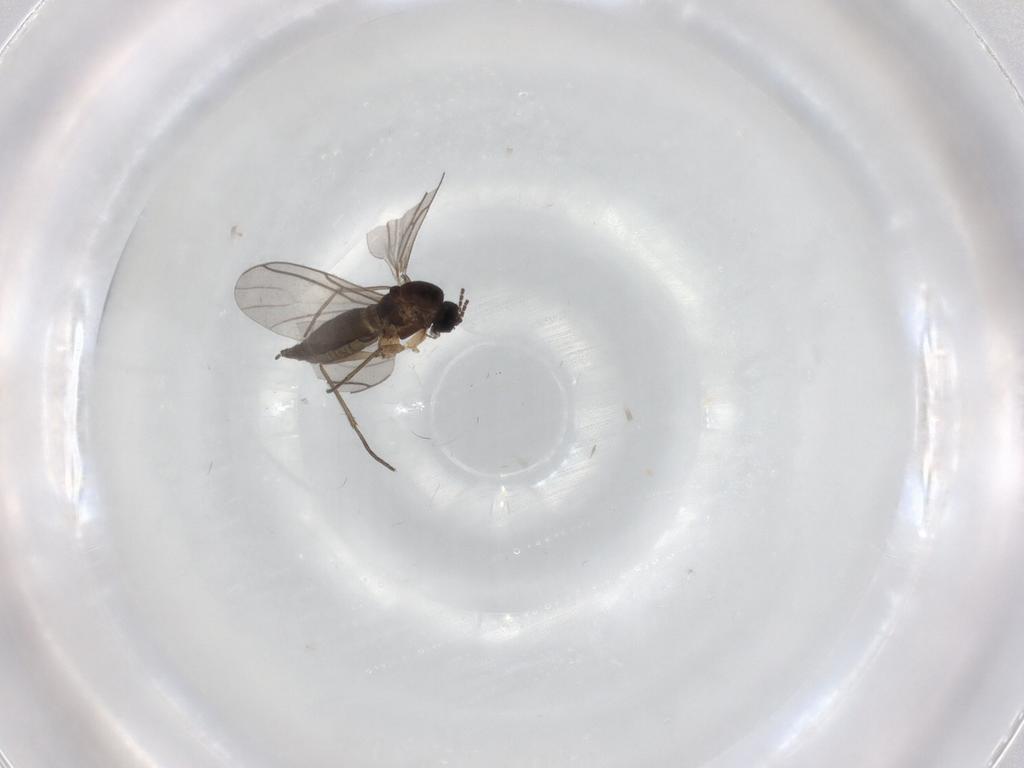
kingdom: Animalia
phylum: Arthropoda
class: Insecta
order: Diptera
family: Sciaridae
